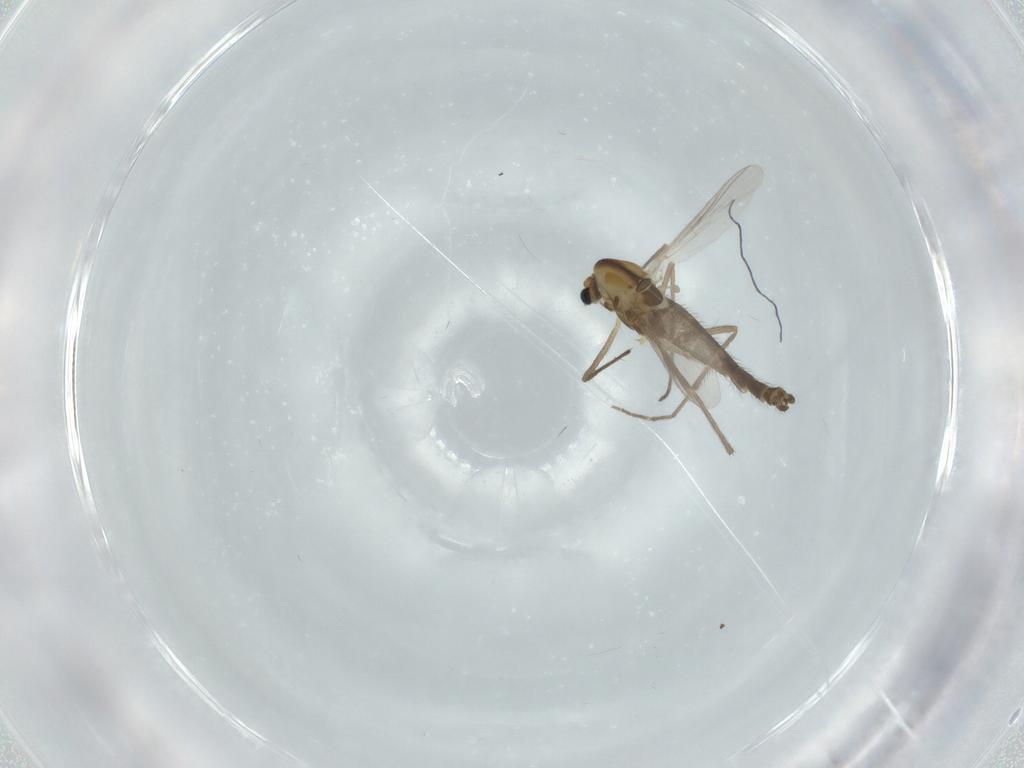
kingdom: Animalia
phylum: Arthropoda
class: Insecta
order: Diptera
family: Chironomidae
